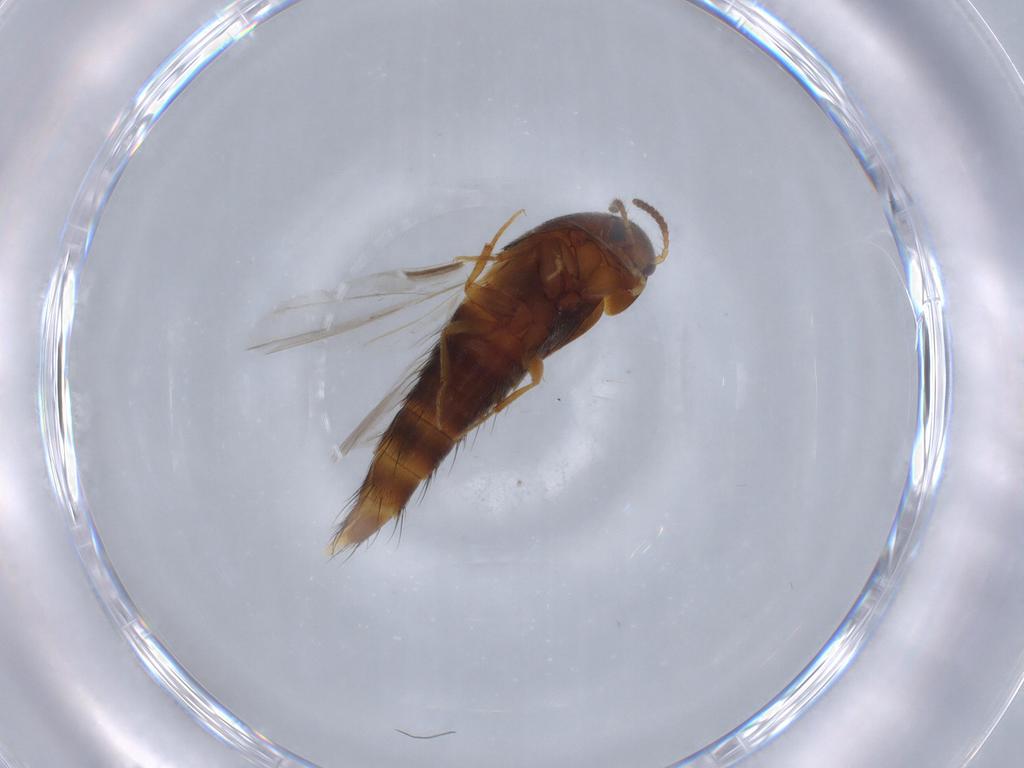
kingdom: Animalia
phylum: Arthropoda
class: Insecta
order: Coleoptera
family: Staphylinidae
